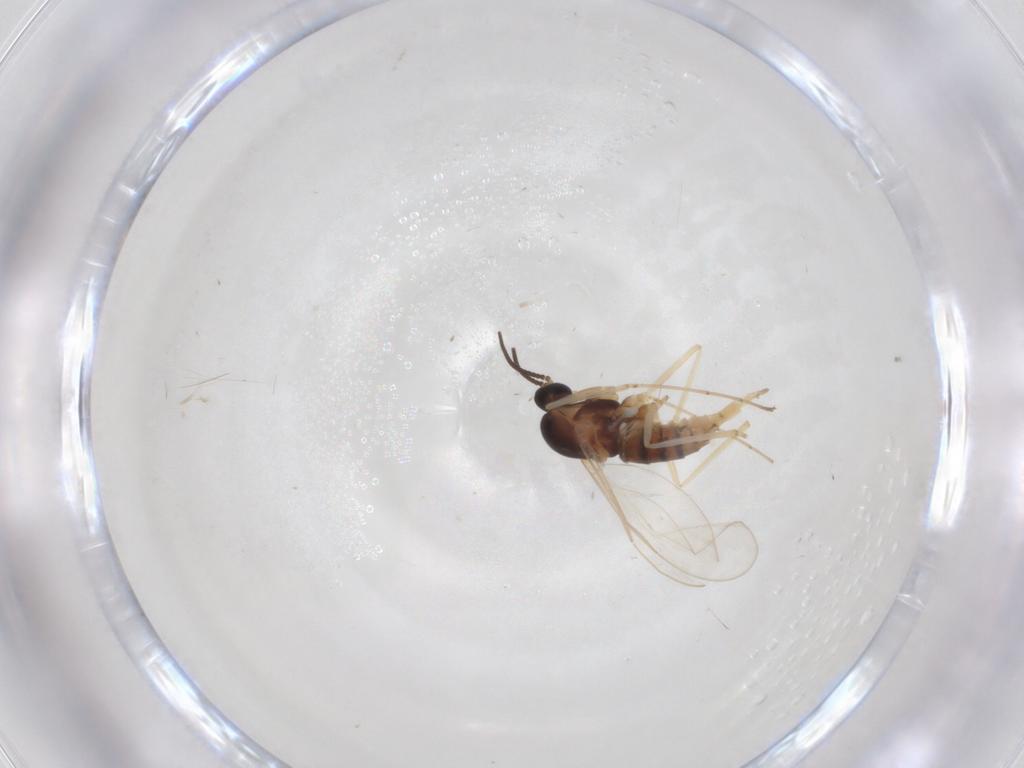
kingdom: Animalia
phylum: Arthropoda
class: Insecta
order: Diptera
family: Cecidomyiidae
